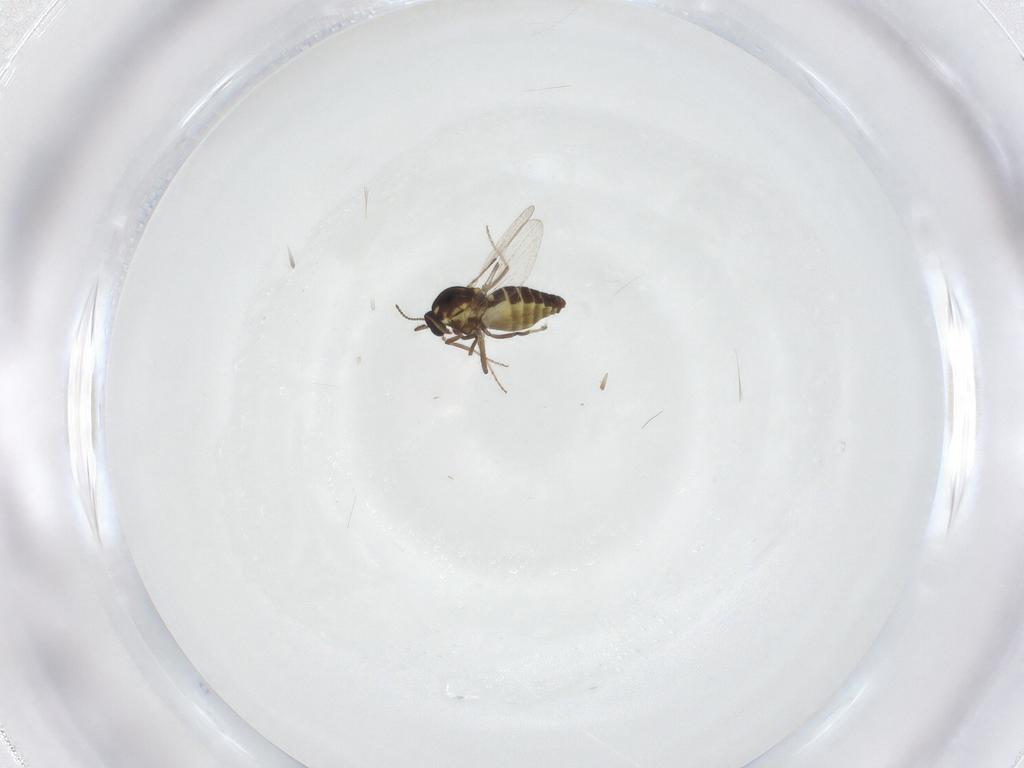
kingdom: Animalia
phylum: Arthropoda
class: Insecta
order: Diptera
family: Ceratopogonidae
